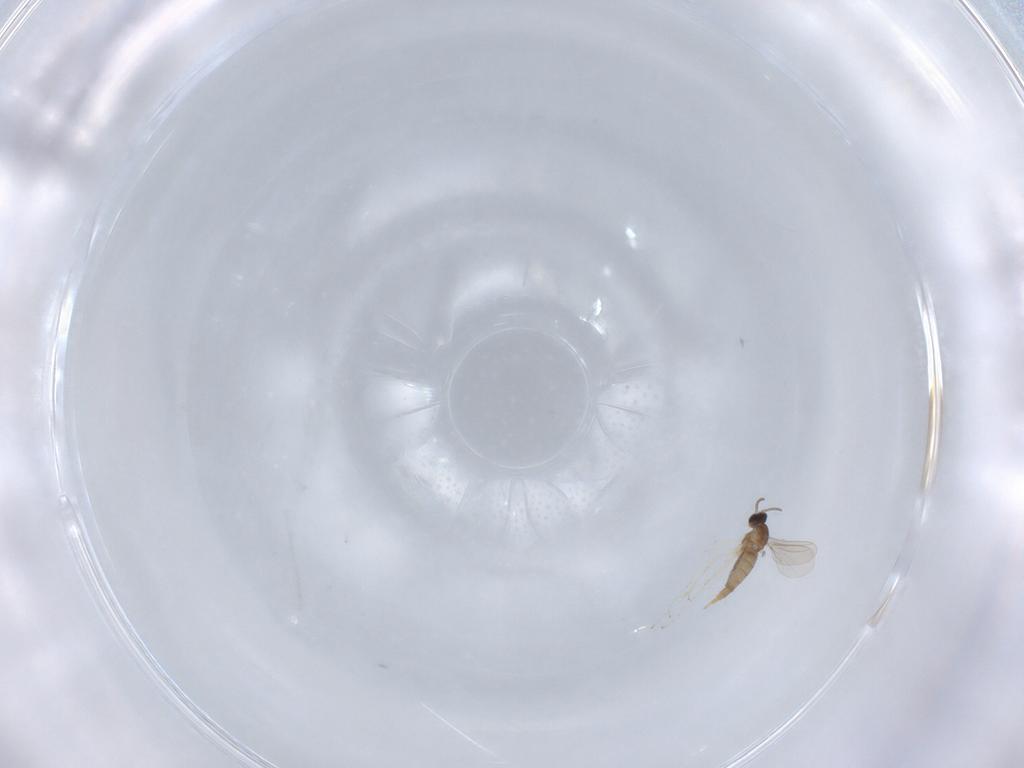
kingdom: Animalia
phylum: Arthropoda
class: Insecta
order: Diptera
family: Cecidomyiidae
